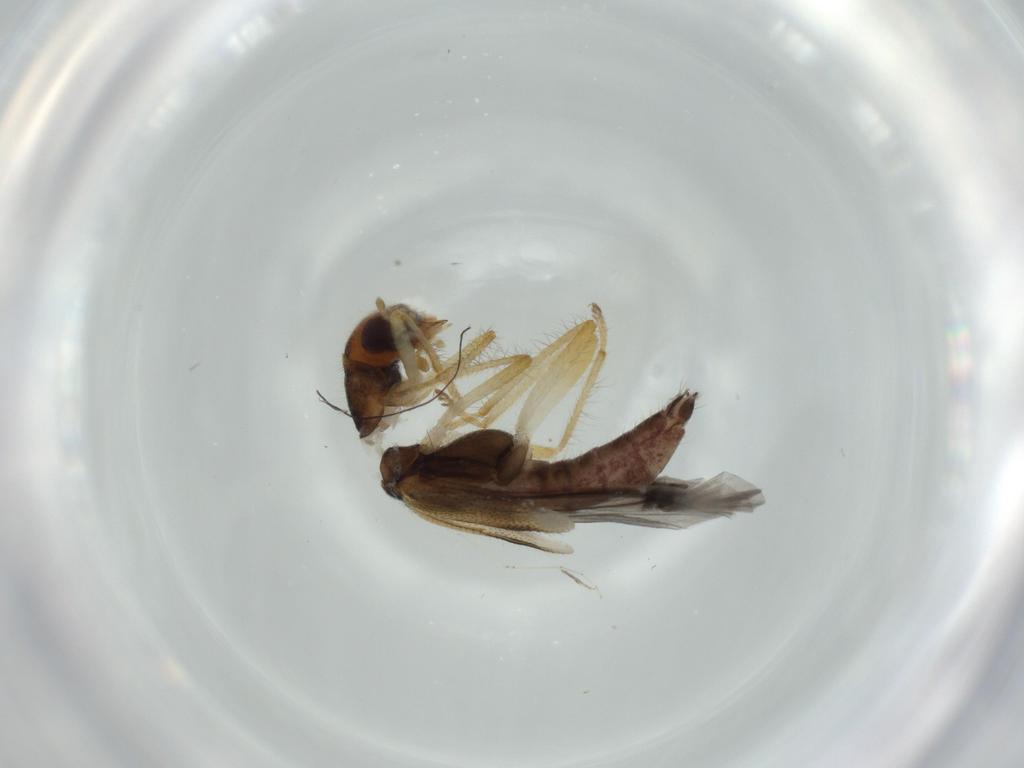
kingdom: Animalia
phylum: Arthropoda
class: Insecta
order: Coleoptera
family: Cleridae
